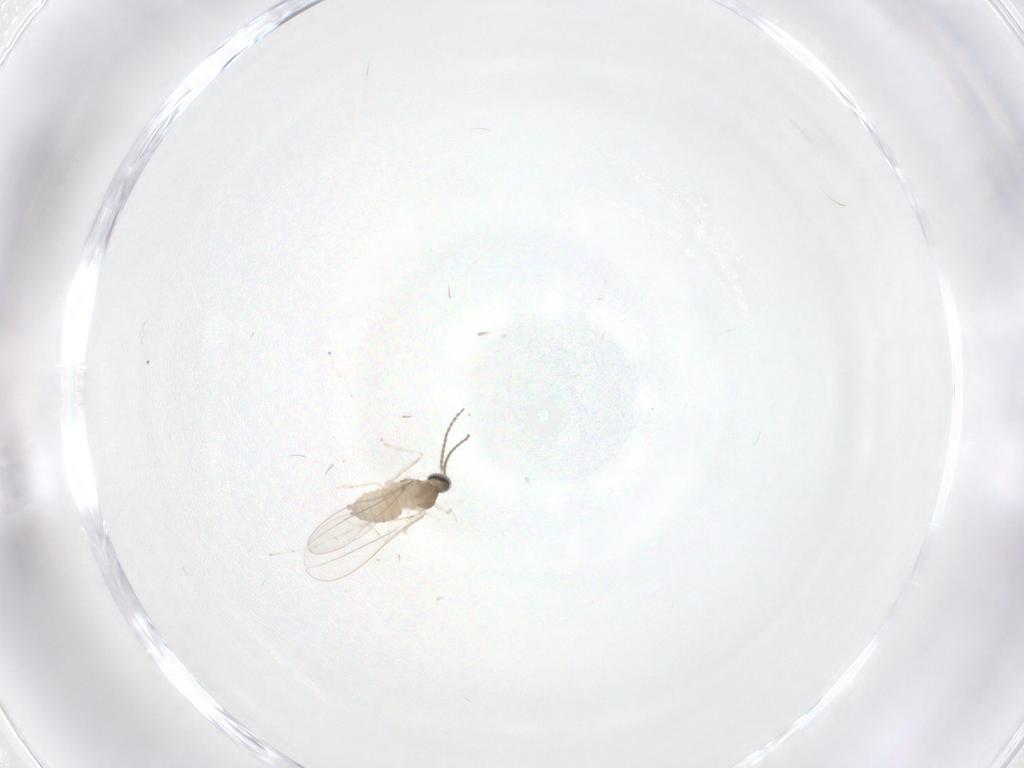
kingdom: Animalia
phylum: Arthropoda
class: Insecta
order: Diptera
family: Cecidomyiidae
